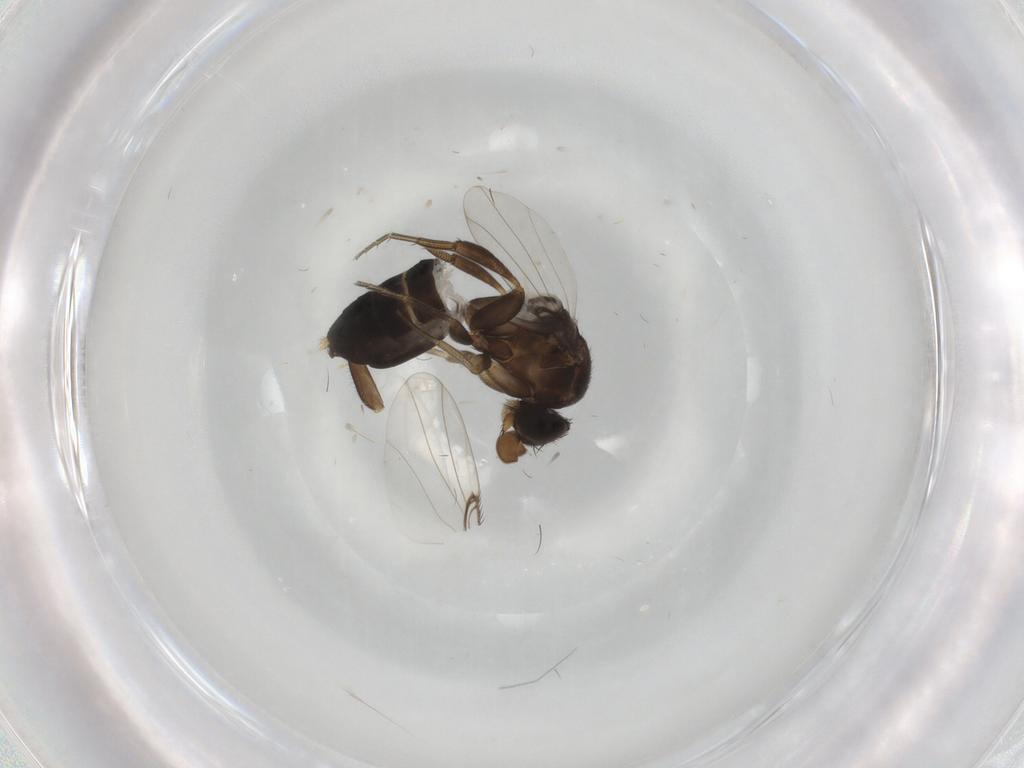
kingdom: Animalia
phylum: Arthropoda
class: Insecta
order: Diptera
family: Phoridae
